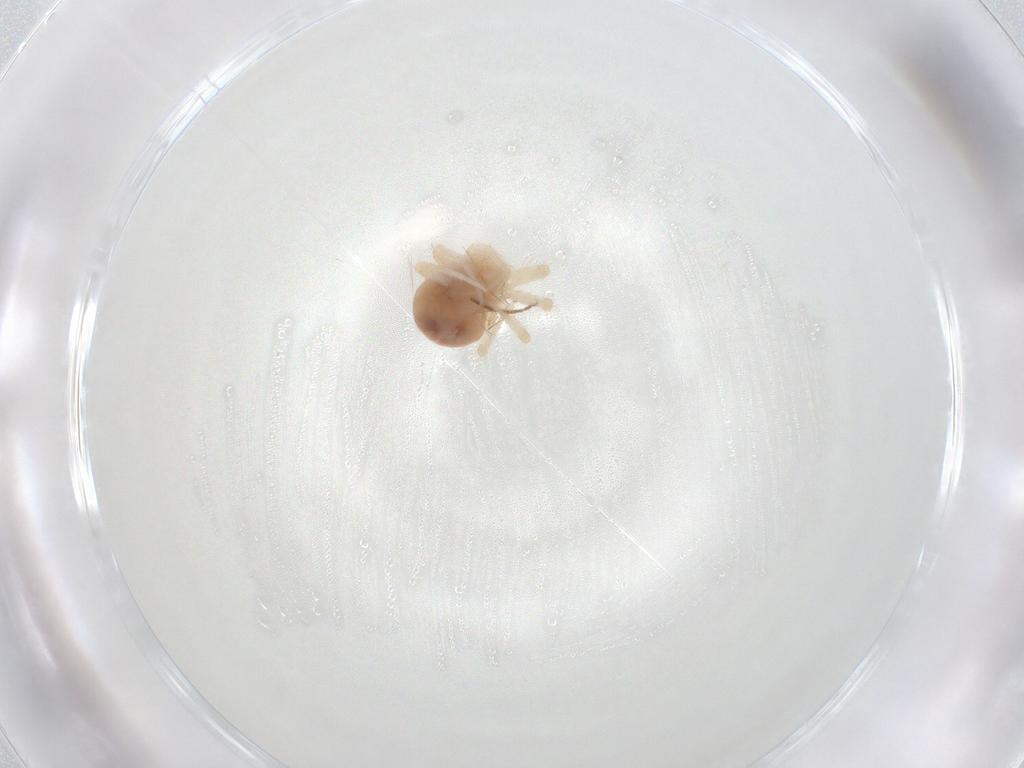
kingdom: Animalia
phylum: Arthropoda
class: Arachnida
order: Trombidiformes
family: Anystidae
